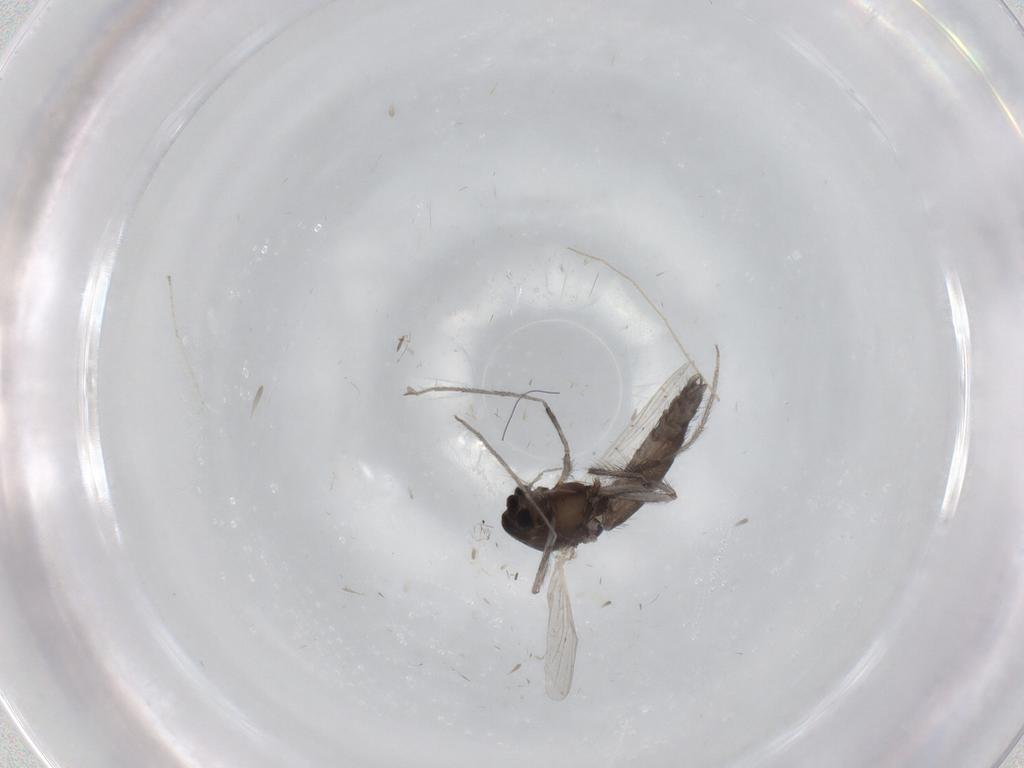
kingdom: Animalia
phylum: Arthropoda
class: Insecta
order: Diptera
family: Chironomidae
